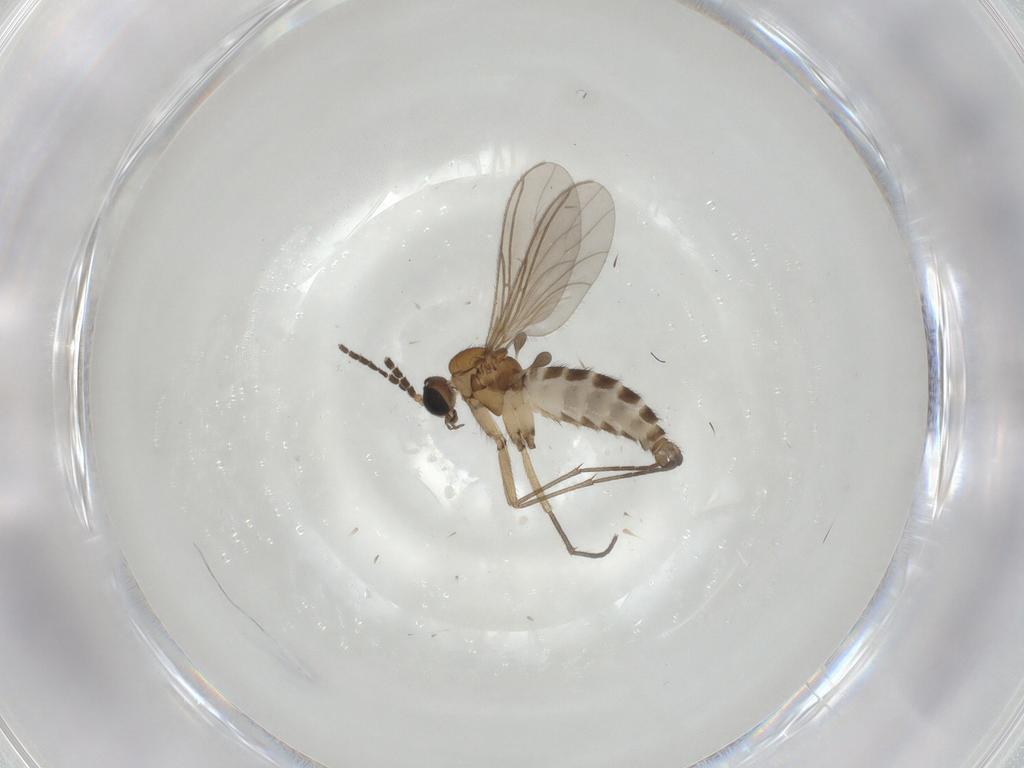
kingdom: Animalia
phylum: Arthropoda
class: Insecta
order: Diptera
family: Sciaridae
